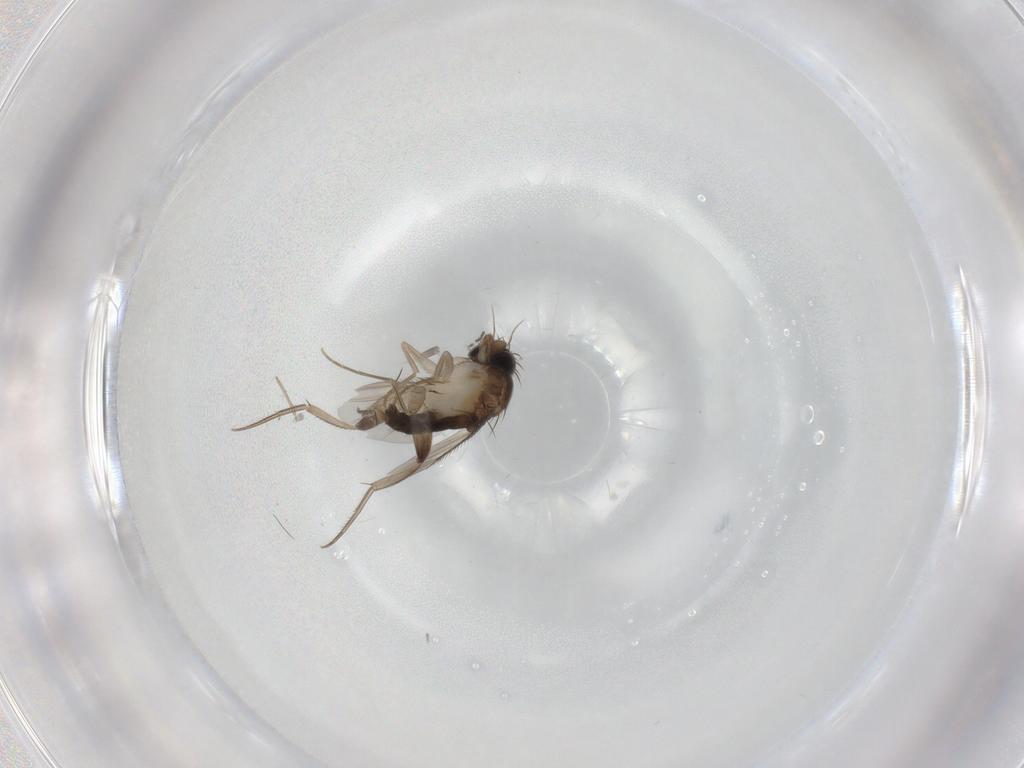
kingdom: Animalia
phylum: Arthropoda
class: Insecta
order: Diptera
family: Phoridae
